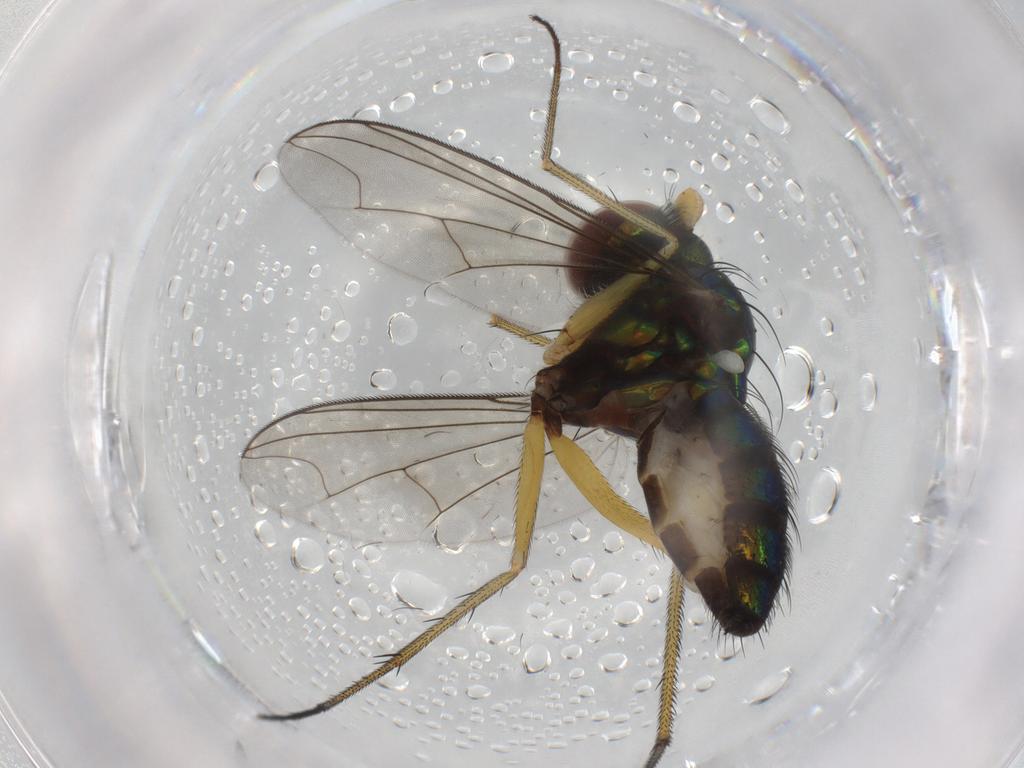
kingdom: Animalia
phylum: Arthropoda
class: Insecta
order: Diptera
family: Dolichopodidae
